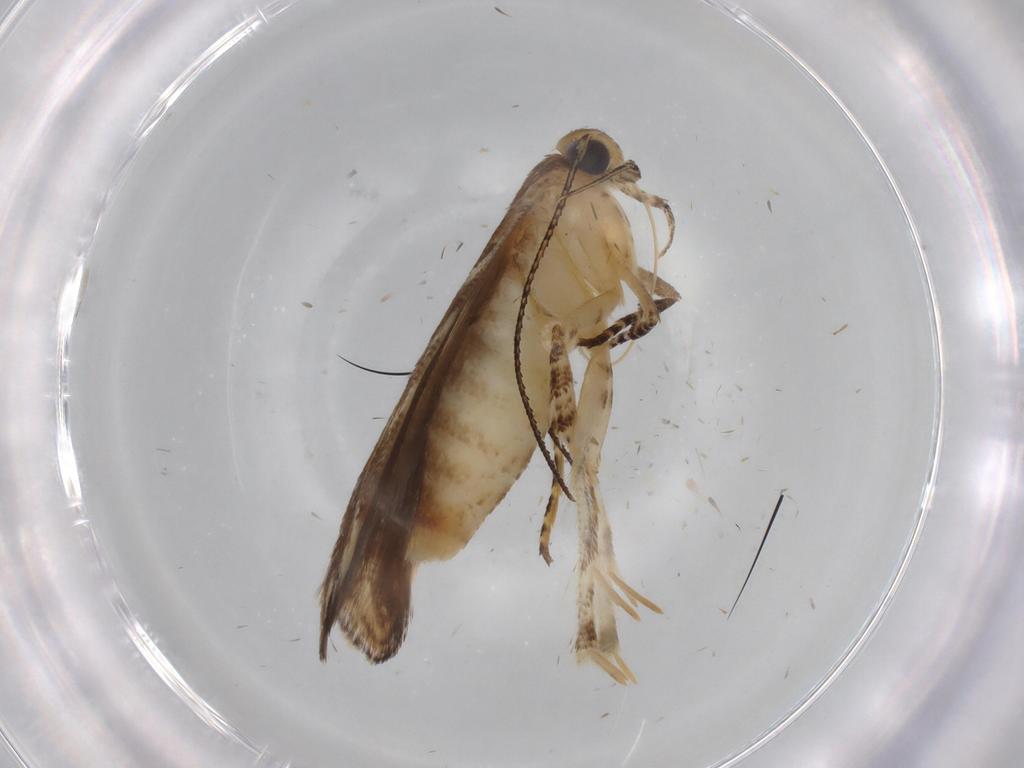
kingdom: Animalia
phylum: Arthropoda
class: Insecta
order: Lepidoptera
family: Gelechiidae
